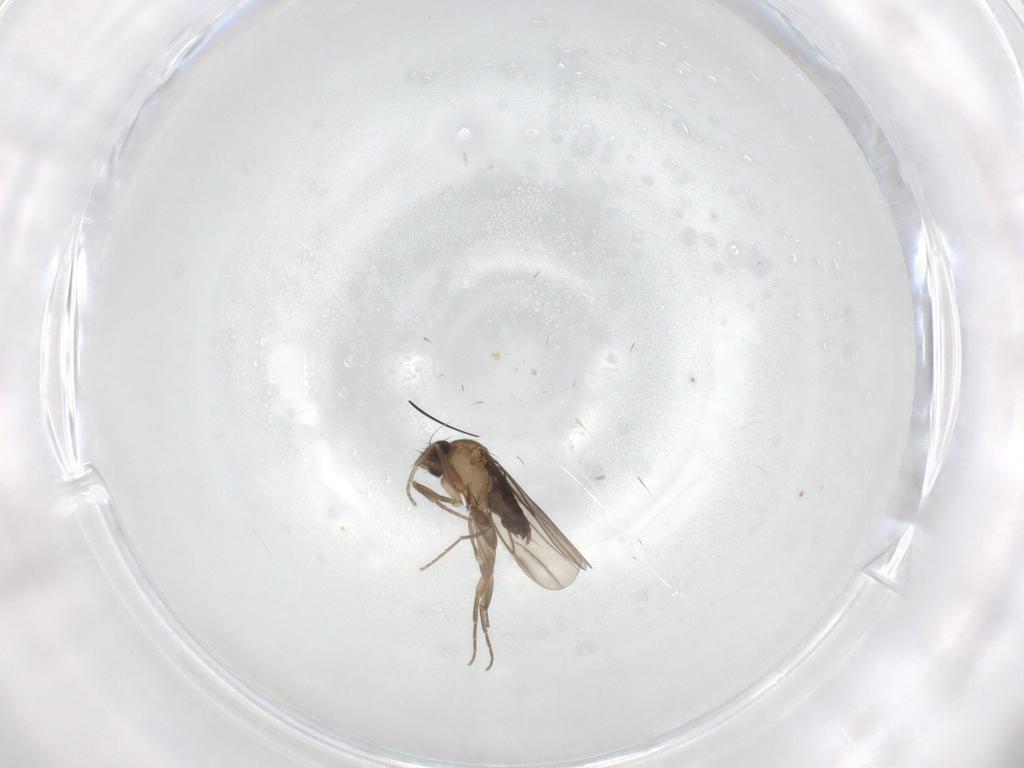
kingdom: Animalia
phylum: Arthropoda
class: Insecta
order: Diptera
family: Phoridae
